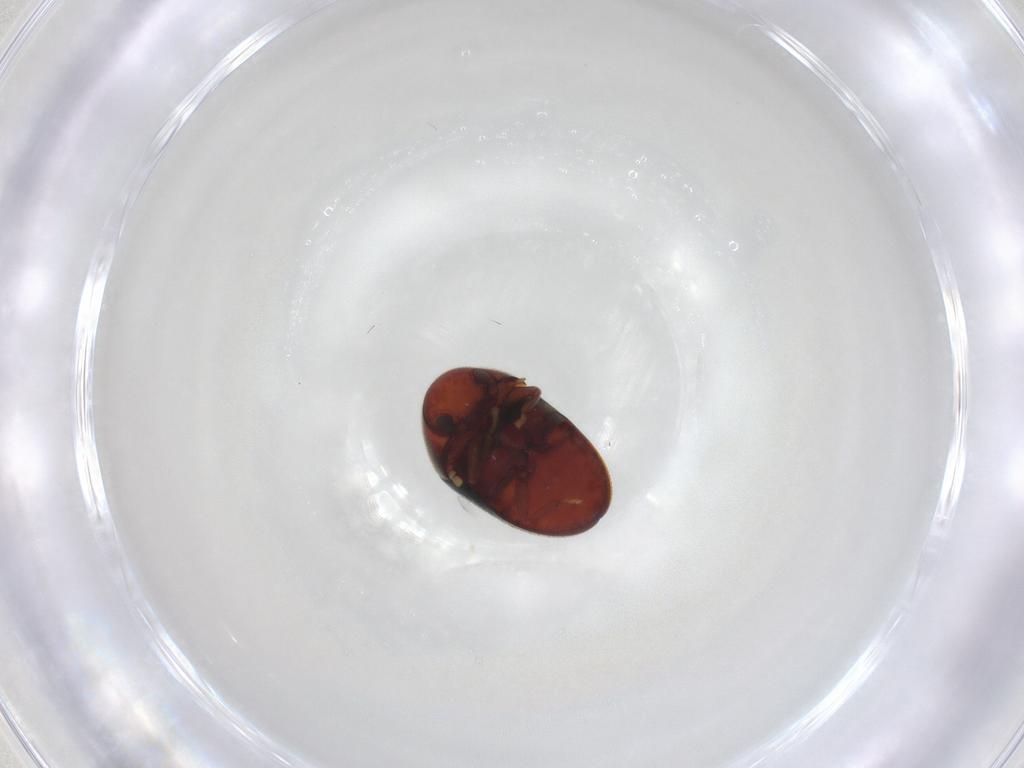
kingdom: Animalia
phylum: Arthropoda
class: Insecta
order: Coleoptera
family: Ptinidae
